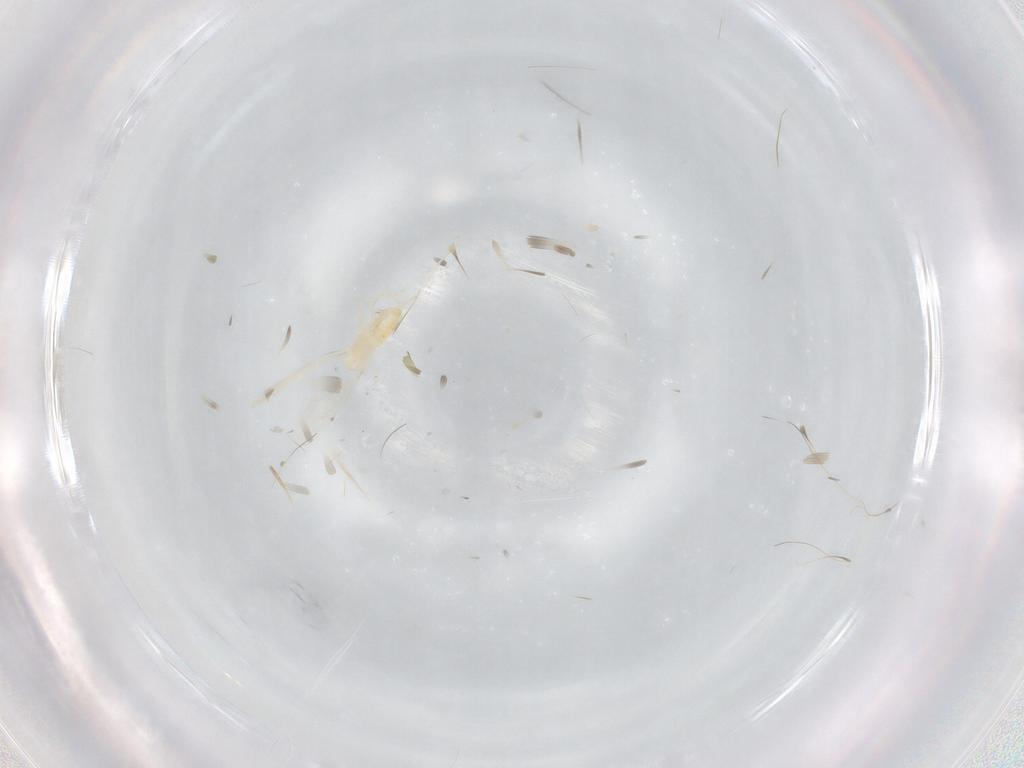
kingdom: Animalia
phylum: Arthropoda
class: Insecta
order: Diptera
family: Cecidomyiidae
